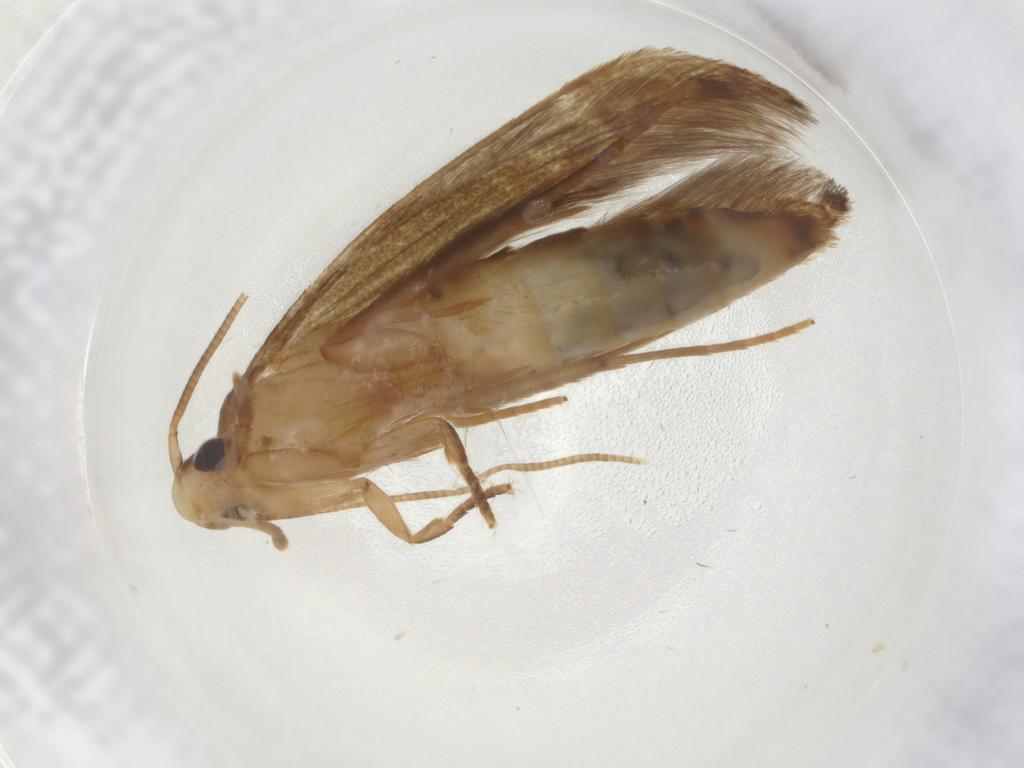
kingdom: Animalia
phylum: Arthropoda
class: Insecta
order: Lepidoptera
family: Tineidae
